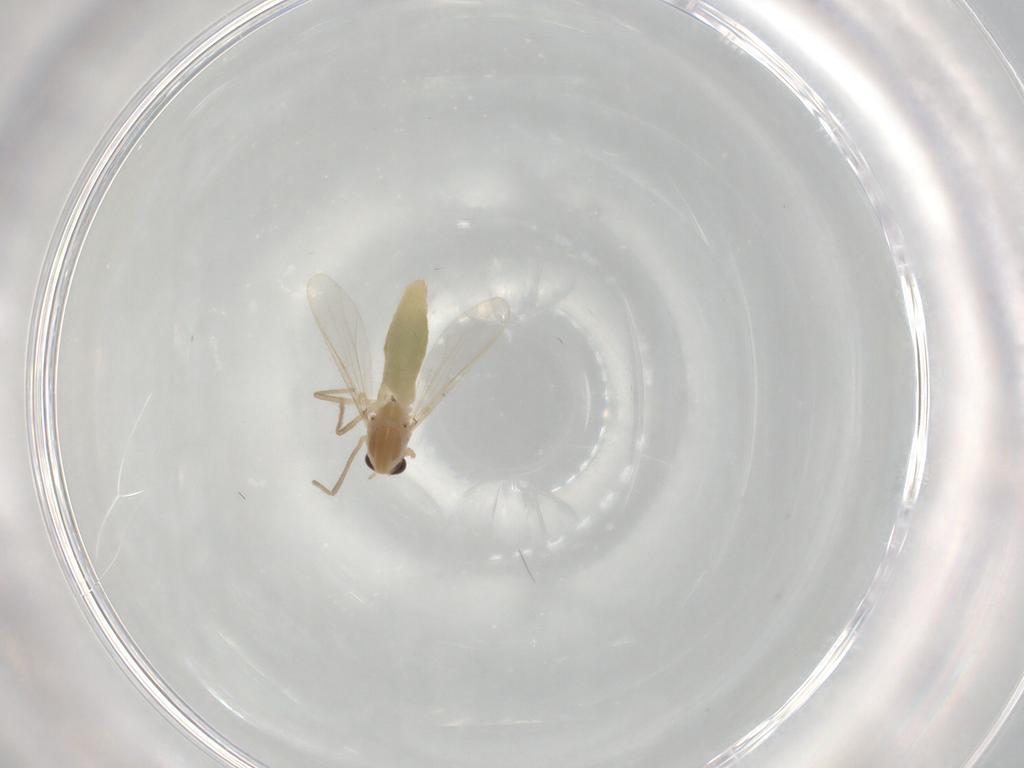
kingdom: Animalia
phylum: Arthropoda
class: Insecta
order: Diptera
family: Chironomidae
